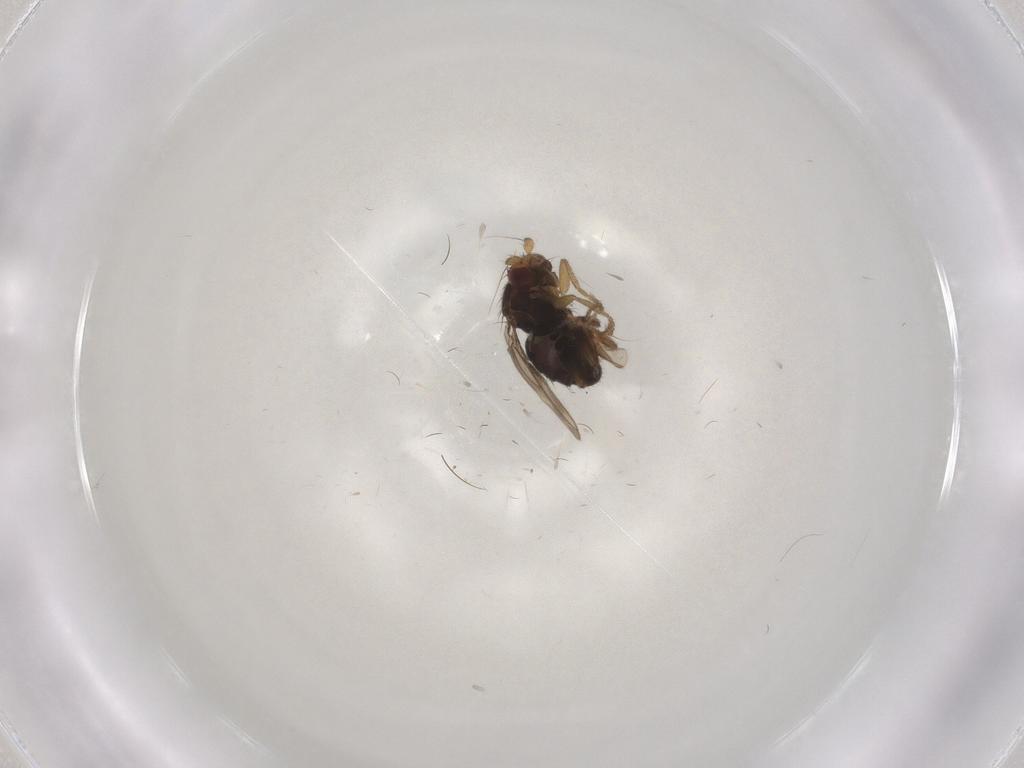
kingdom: Animalia
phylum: Arthropoda
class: Insecta
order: Diptera
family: Sphaeroceridae
